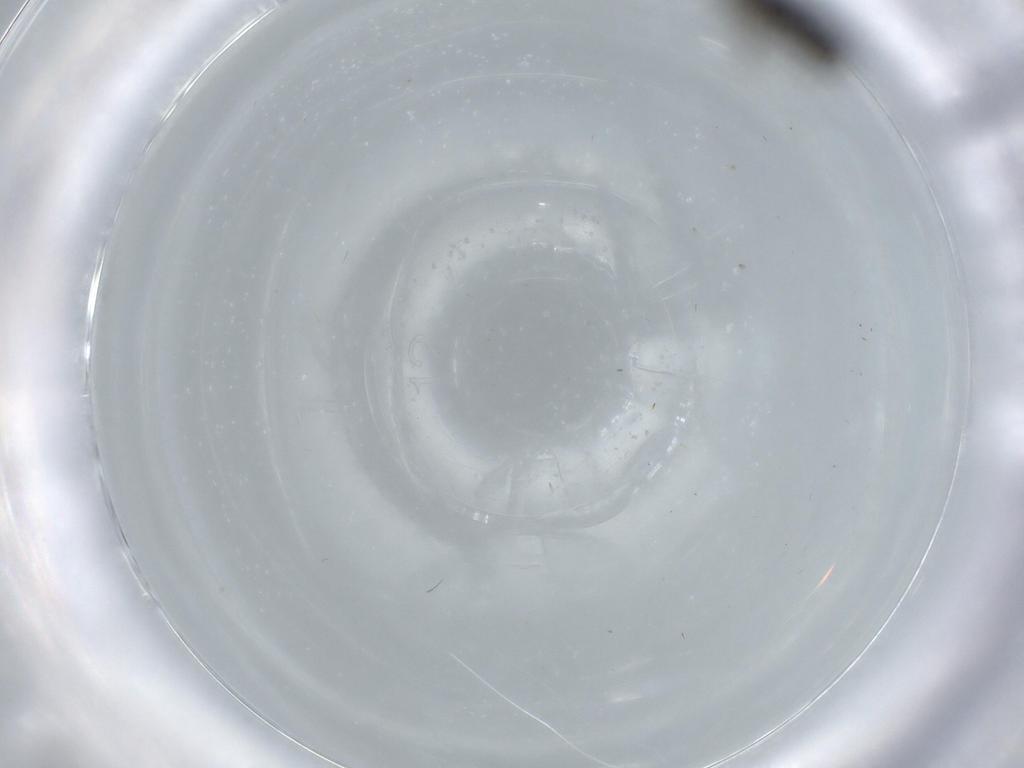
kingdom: Animalia
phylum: Arthropoda
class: Insecta
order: Diptera
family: Sciaridae
